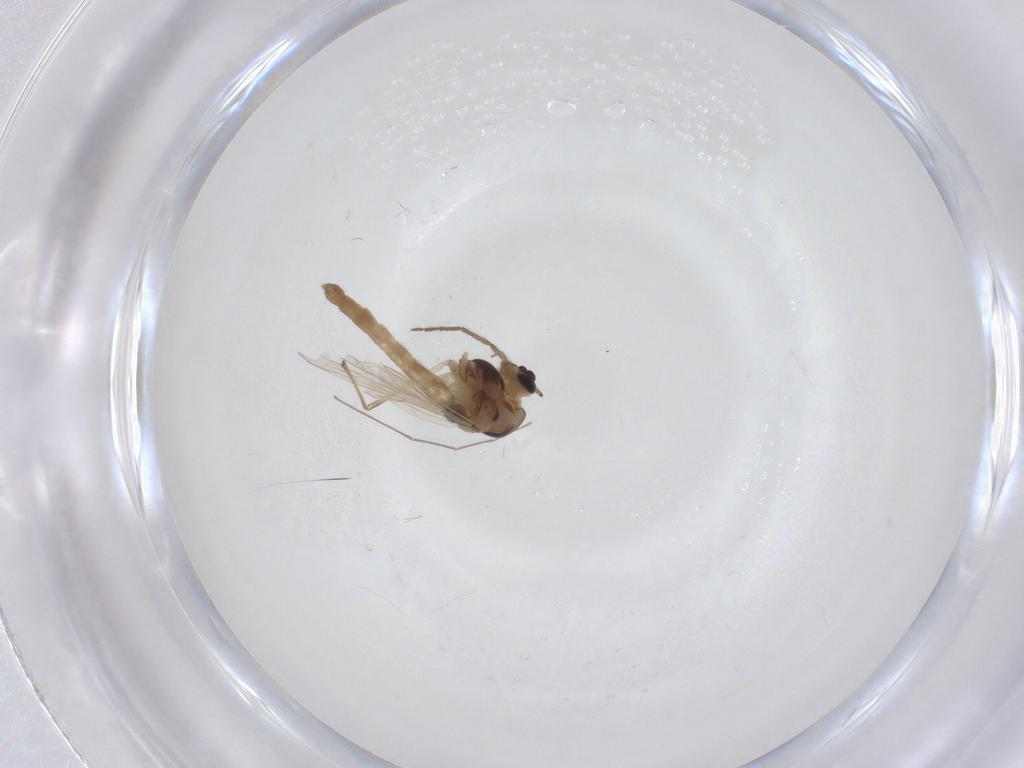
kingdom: Animalia
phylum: Arthropoda
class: Insecta
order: Diptera
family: Chironomidae
